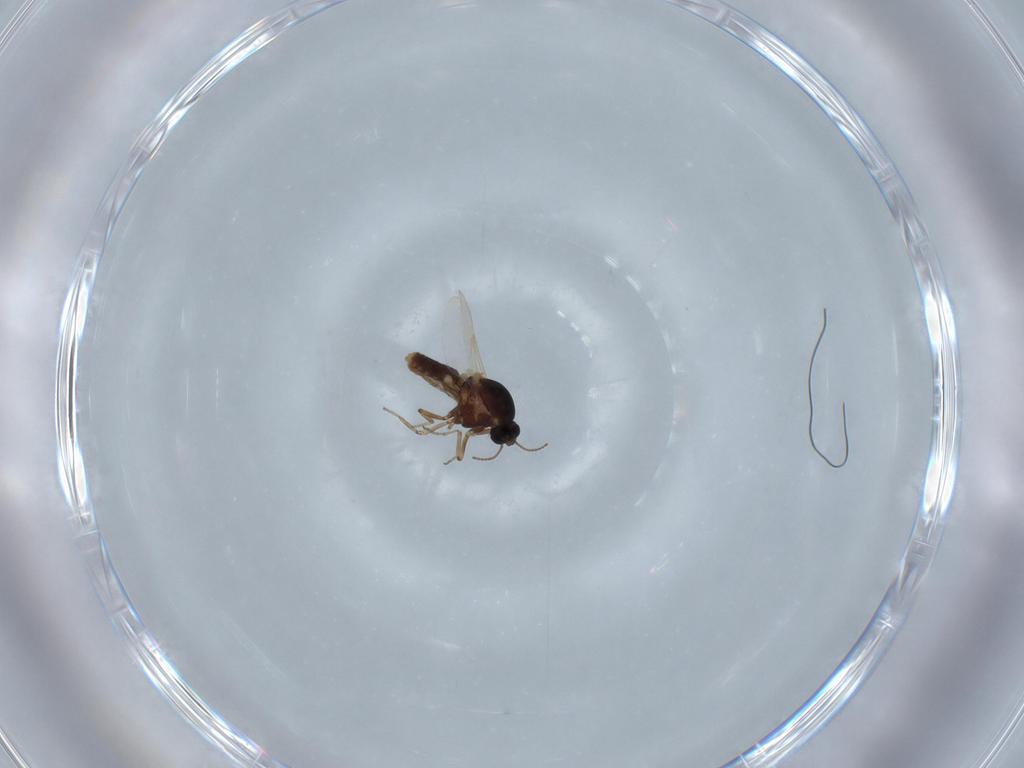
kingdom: Animalia
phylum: Arthropoda
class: Insecta
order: Diptera
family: Ceratopogonidae
